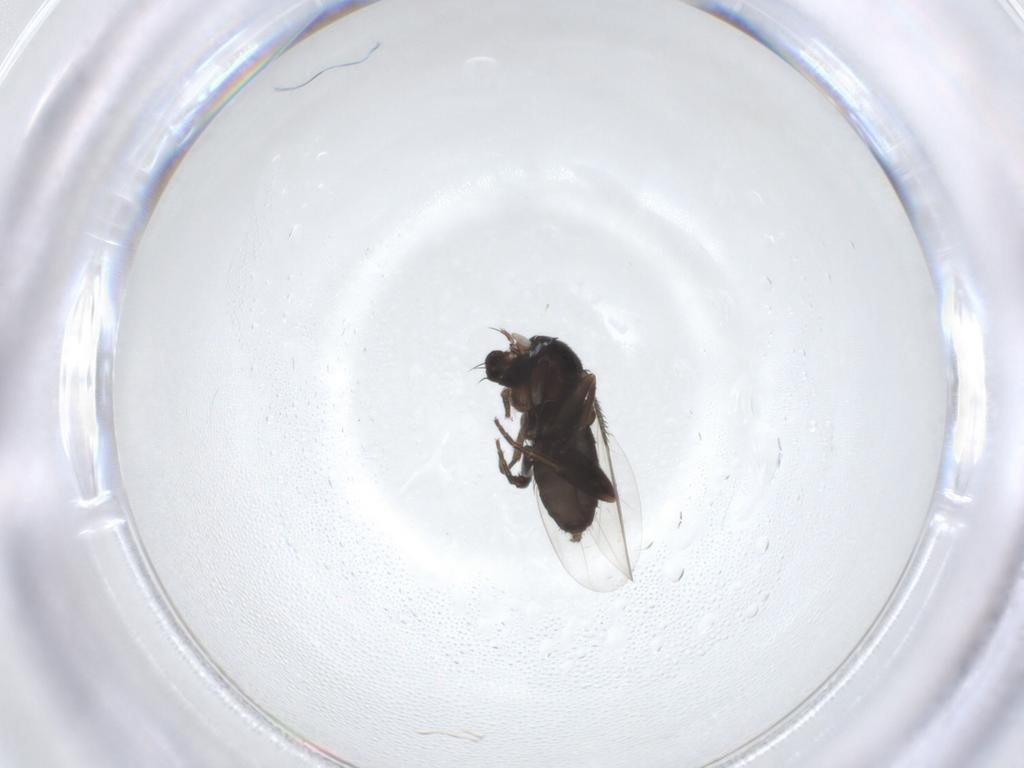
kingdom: Animalia
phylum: Arthropoda
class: Insecta
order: Diptera
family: Phoridae
